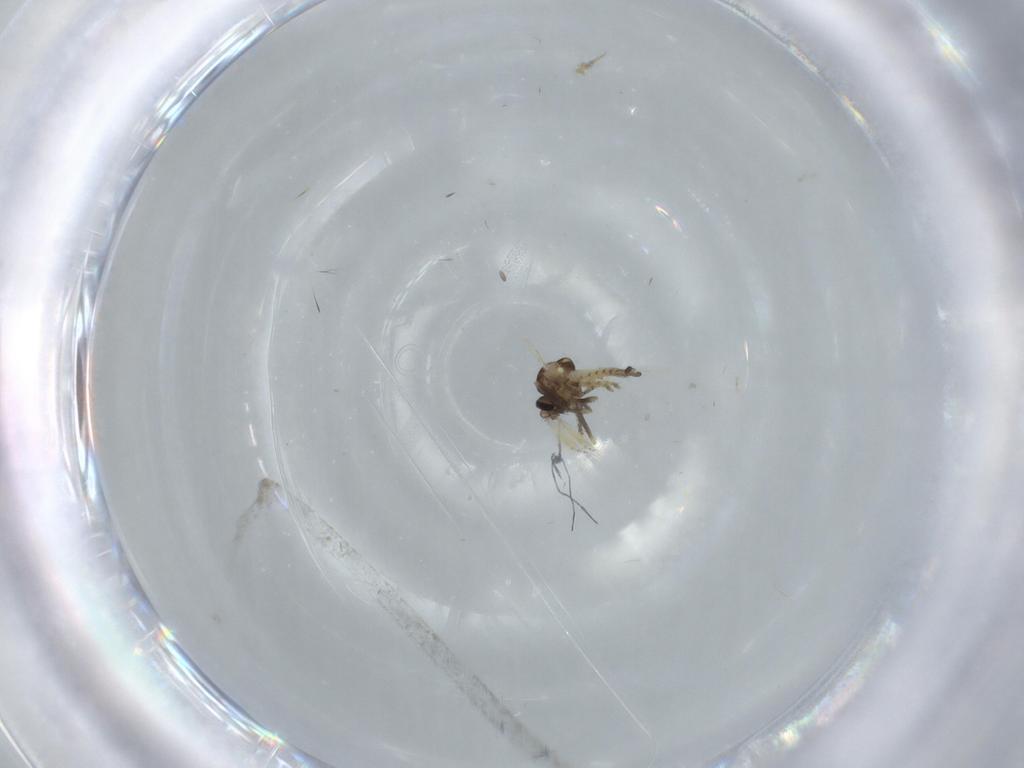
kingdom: Animalia
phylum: Arthropoda
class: Insecta
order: Diptera
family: Ceratopogonidae
